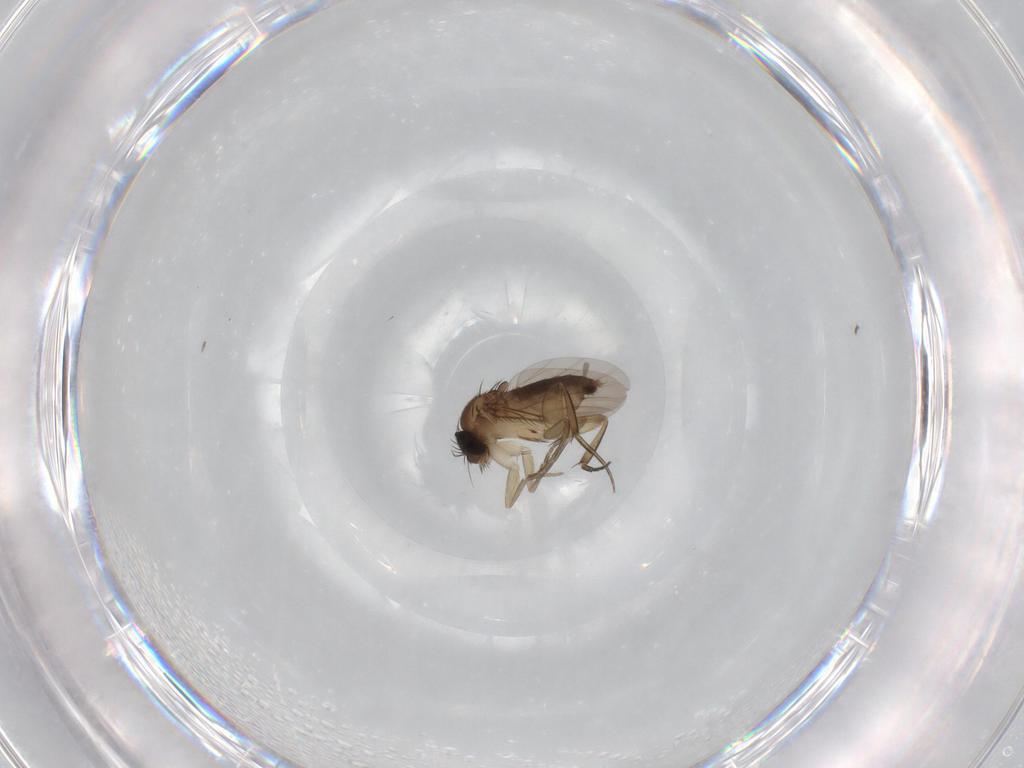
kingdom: Animalia
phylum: Arthropoda
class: Insecta
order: Diptera
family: Phoridae
